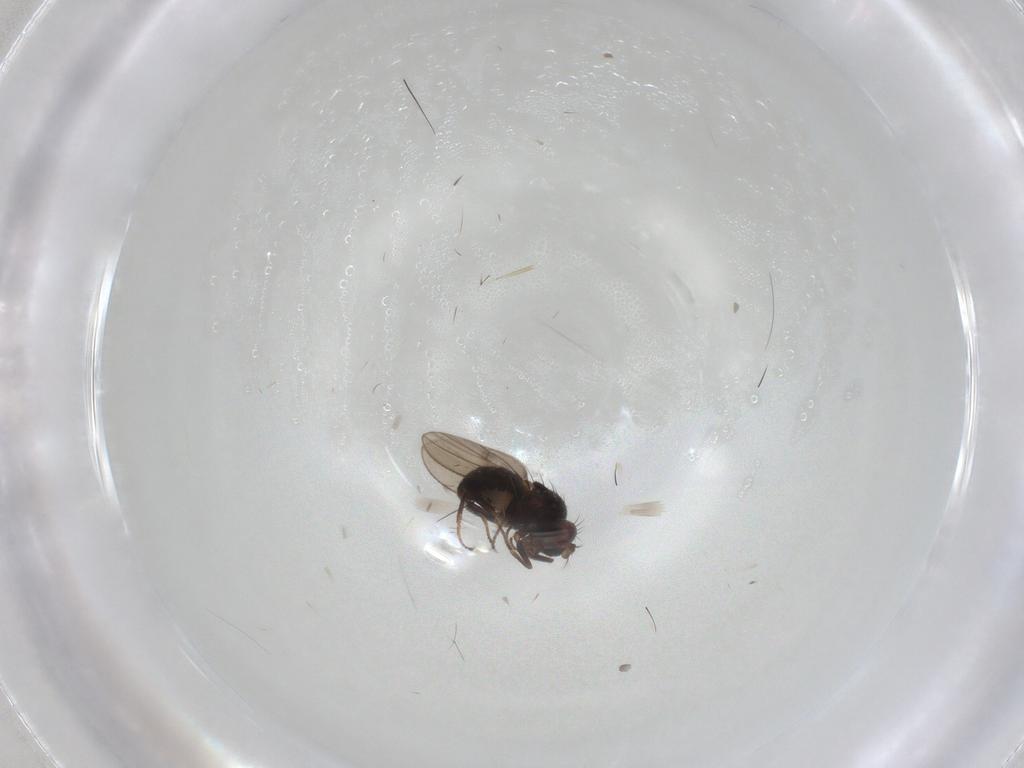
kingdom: Animalia
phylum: Arthropoda
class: Insecta
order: Diptera
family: Ephydridae
